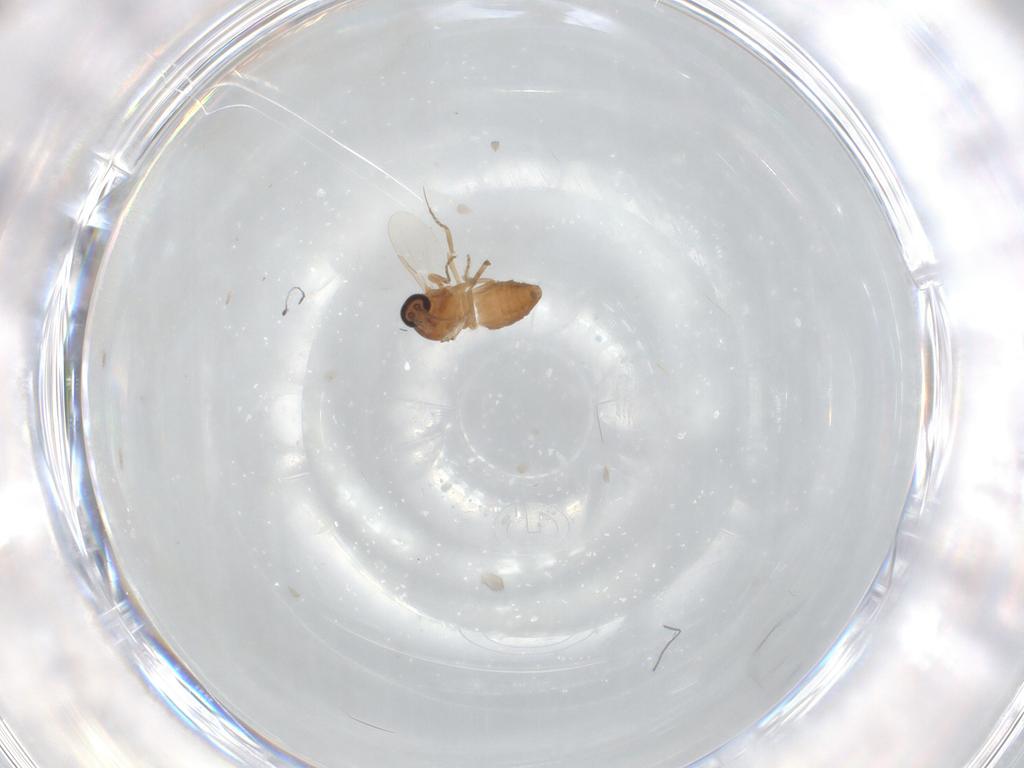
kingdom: Animalia
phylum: Arthropoda
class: Insecta
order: Diptera
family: Ceratopogonidae
